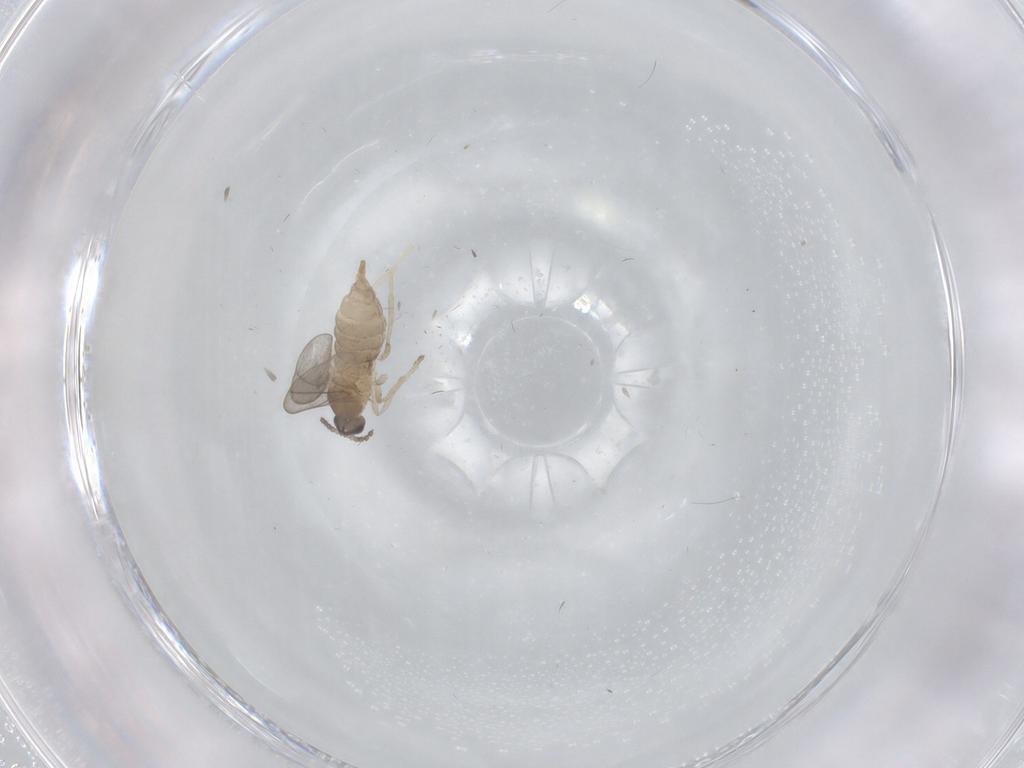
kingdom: Animalia
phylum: Arthropoda
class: Insecta
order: Diptera
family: Cecidomyiidae
